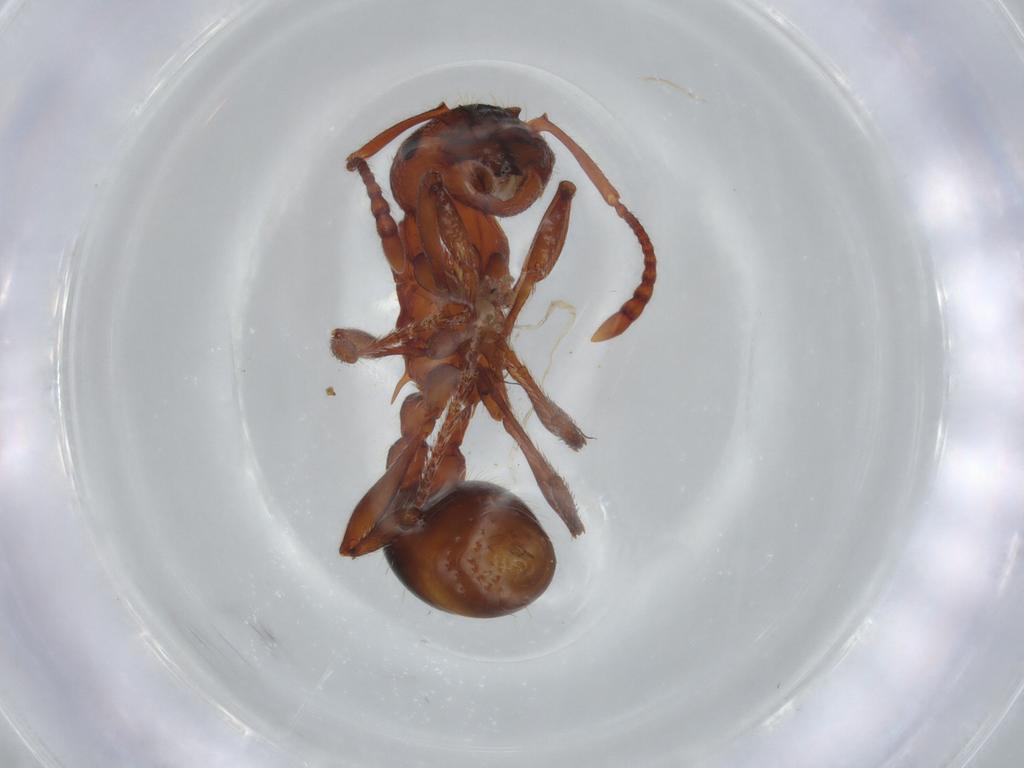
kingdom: Animalia
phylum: Arthropoda
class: Insecta
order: Hymenoptera
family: Formicidae
